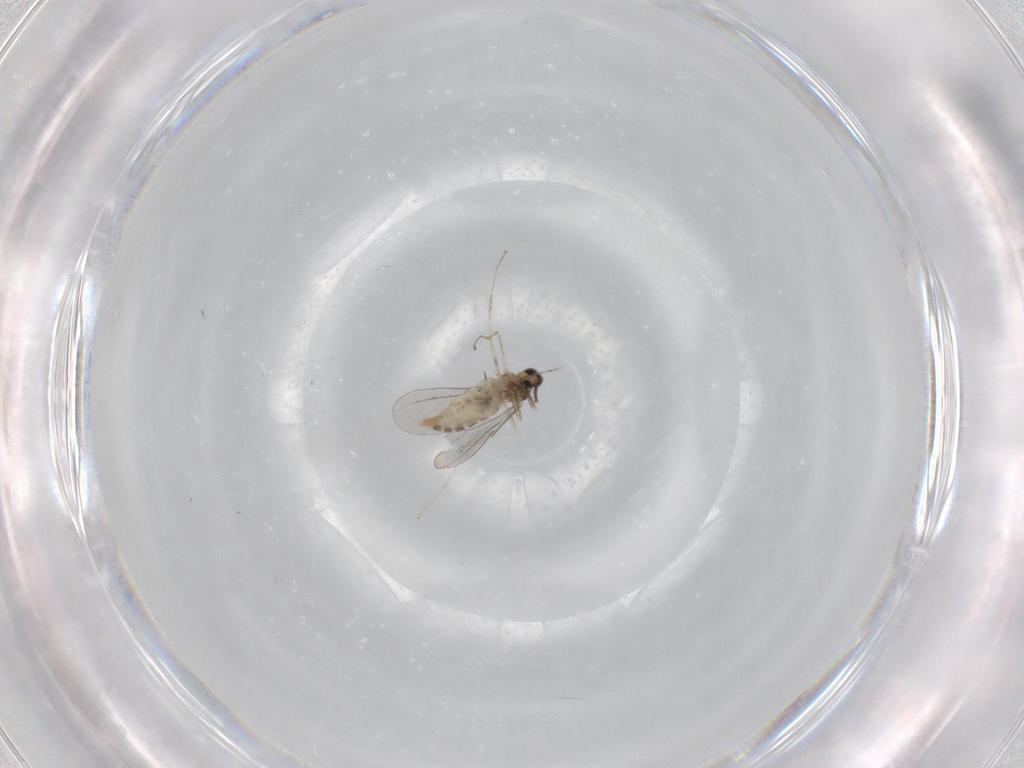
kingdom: Animalia
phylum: Arthropoda
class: Insecta
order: Diptera
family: Cecidomyiidae
